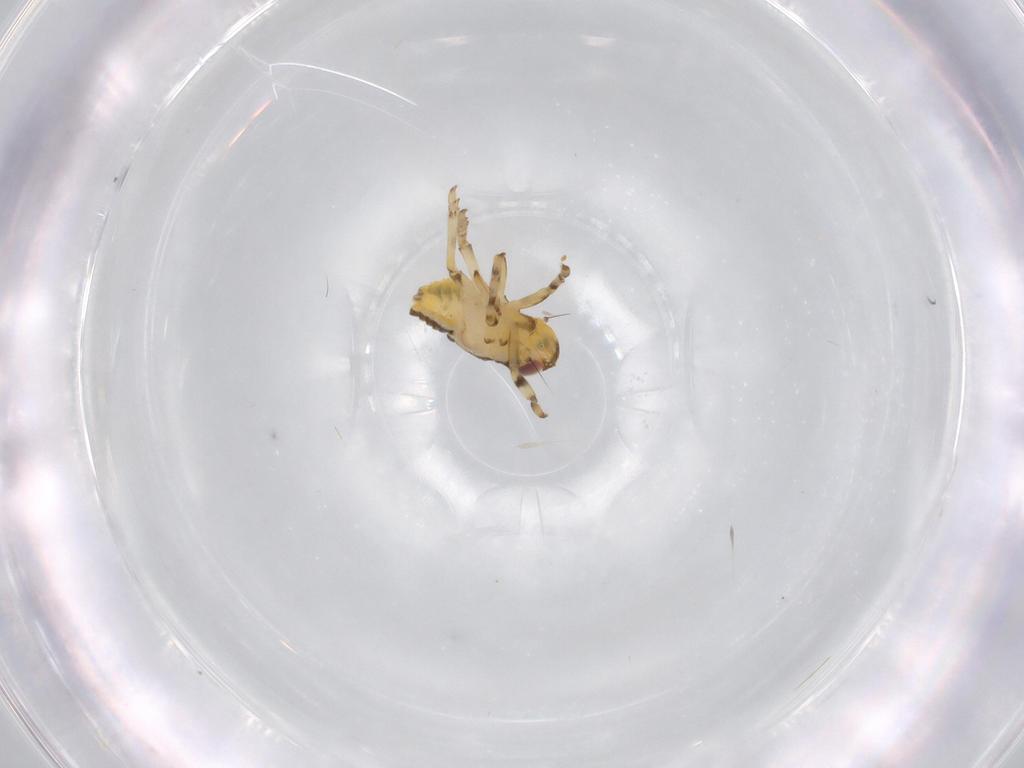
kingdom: Animalia
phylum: Arthropoda
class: Insecta
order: Hemiptera
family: Issidae
